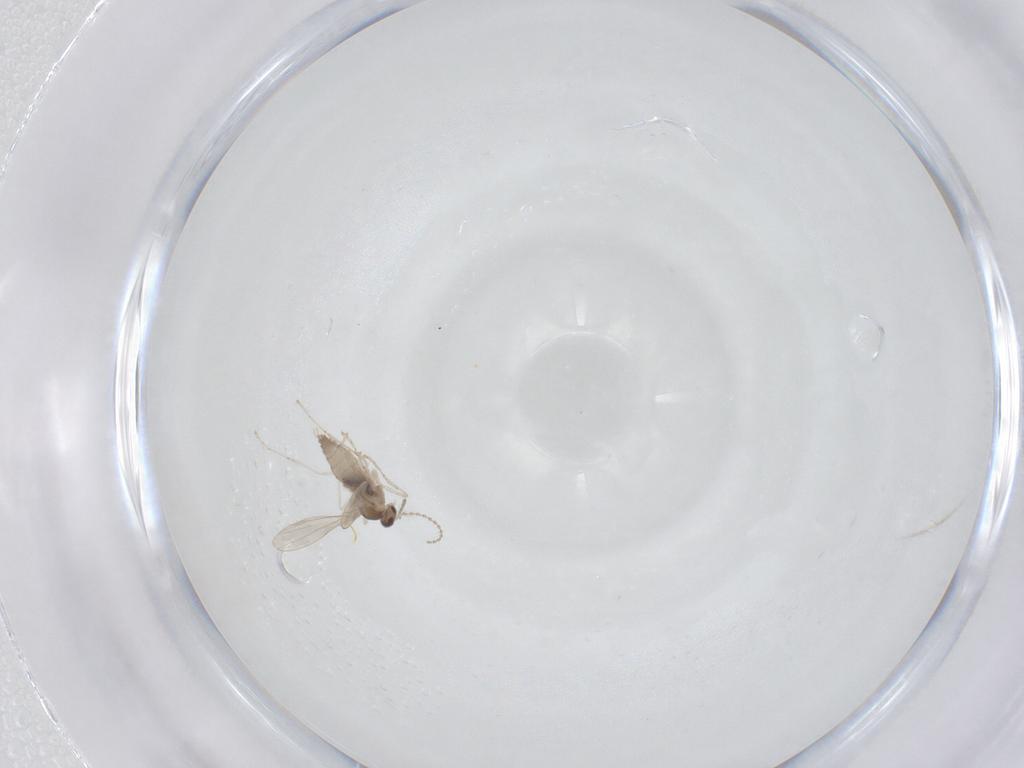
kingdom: Animalia
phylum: Arthropoda
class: Insecta
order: Diptera
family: Cecidomyiidae
